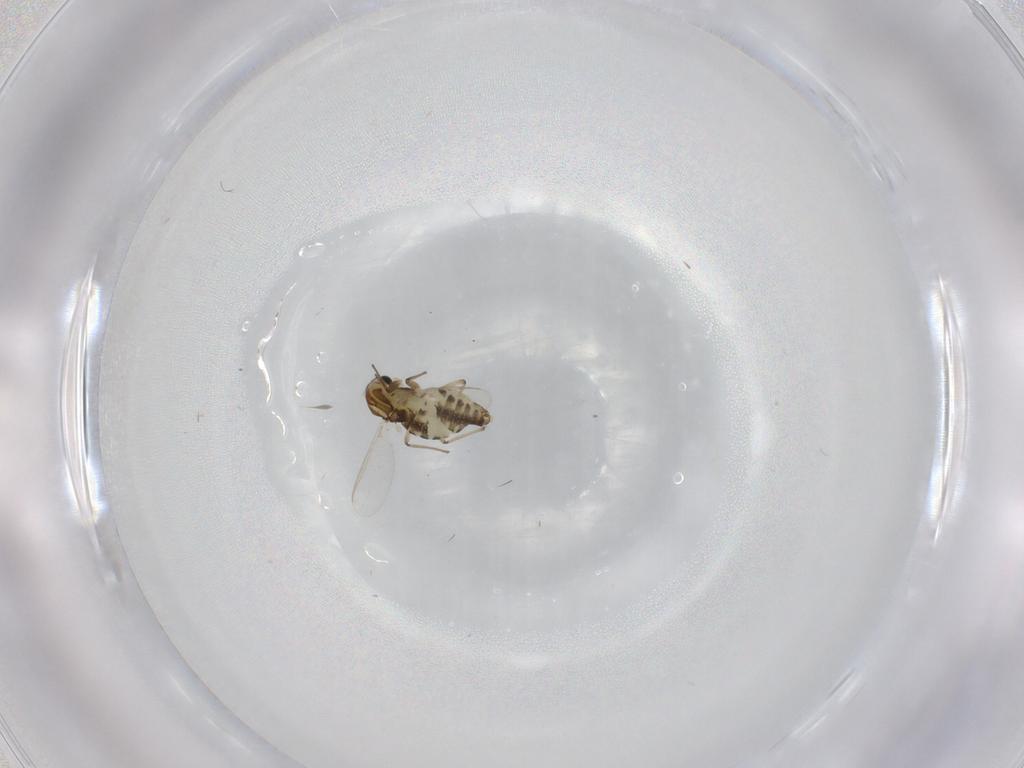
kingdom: Animalia
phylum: Arthropoda
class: Insecta
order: Diptera
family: Chironomidae
